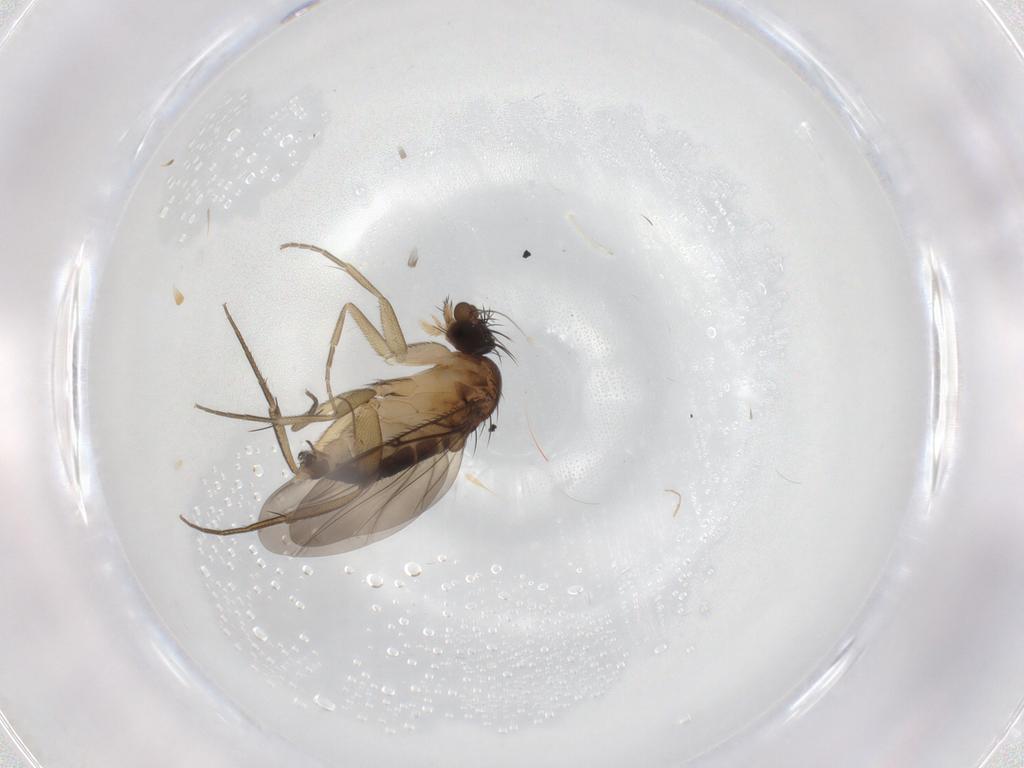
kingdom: Animalia
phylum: Arthropoda
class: Insecta
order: Diptera
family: Phoridae
